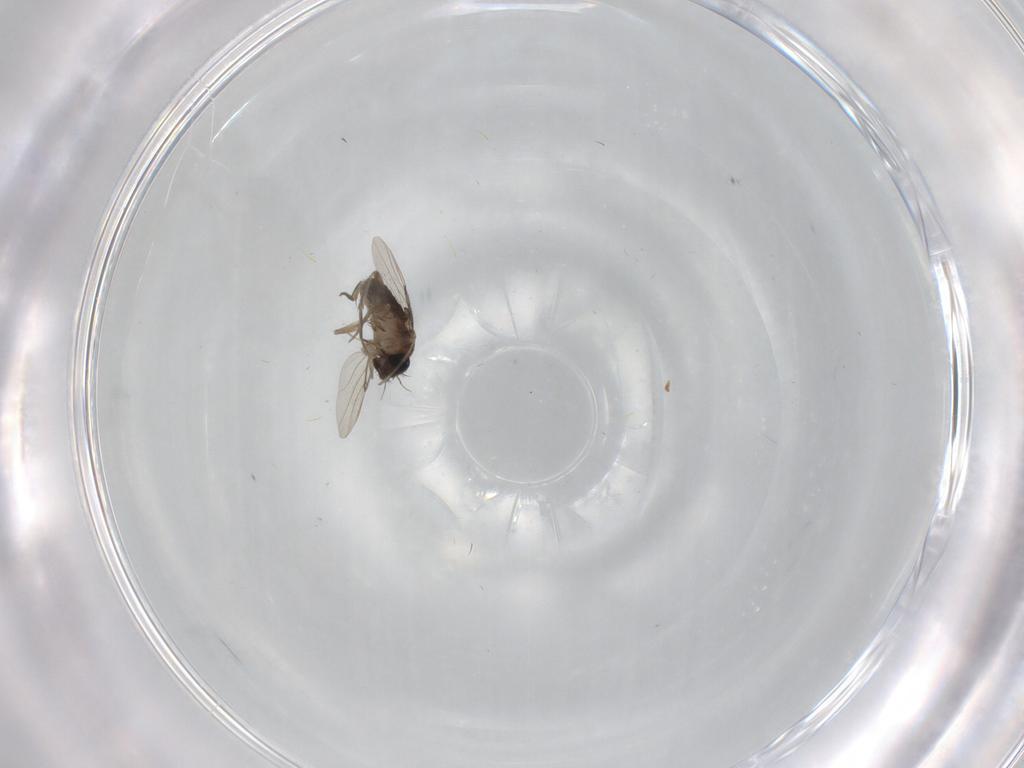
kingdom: Animalia
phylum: Arthropoda
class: Insecta
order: Diptera
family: Phoridae
